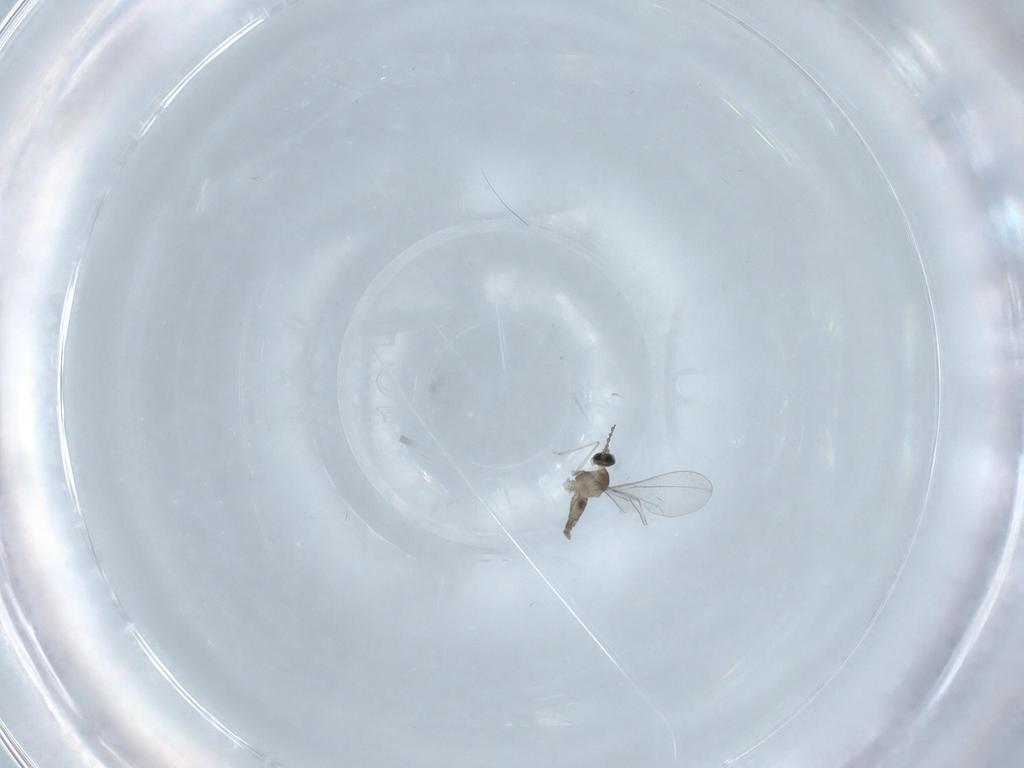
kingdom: Animalia
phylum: Arthropoda
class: Insecta
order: Diptera
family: Cecidomyiidae
